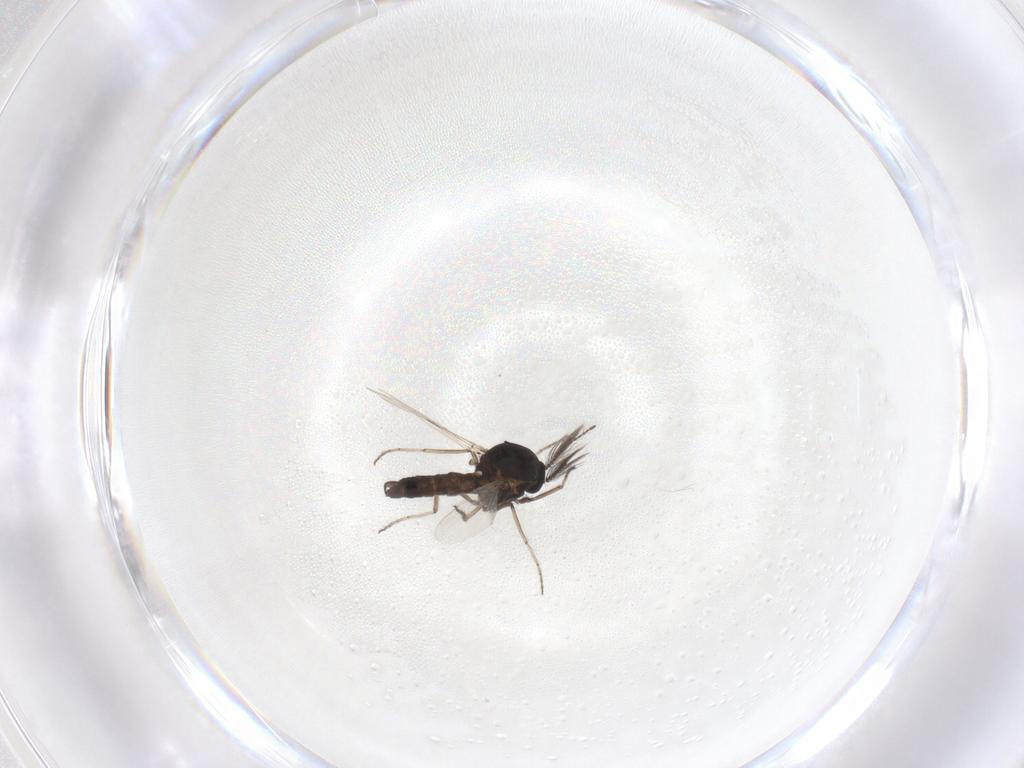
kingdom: Animalia
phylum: Arthropoda
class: Insecta
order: Diptera
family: Ceratopogonidae
